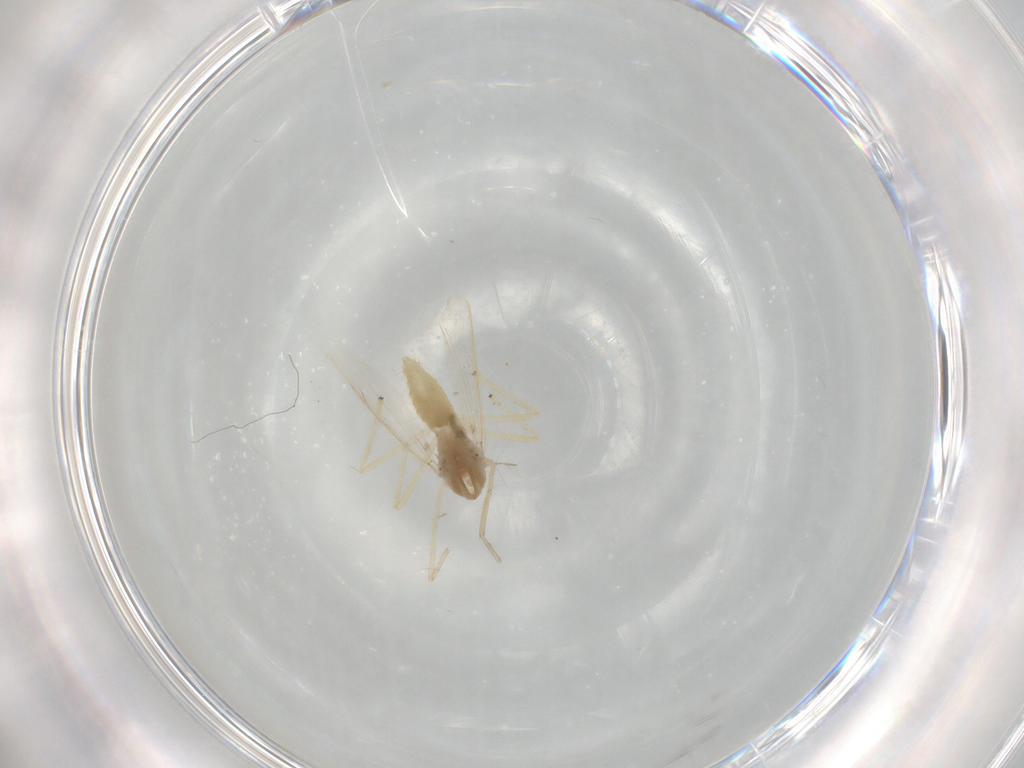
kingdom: Animalia
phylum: Arthropoda
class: Insecta
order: Diptera
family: Chironomidae
